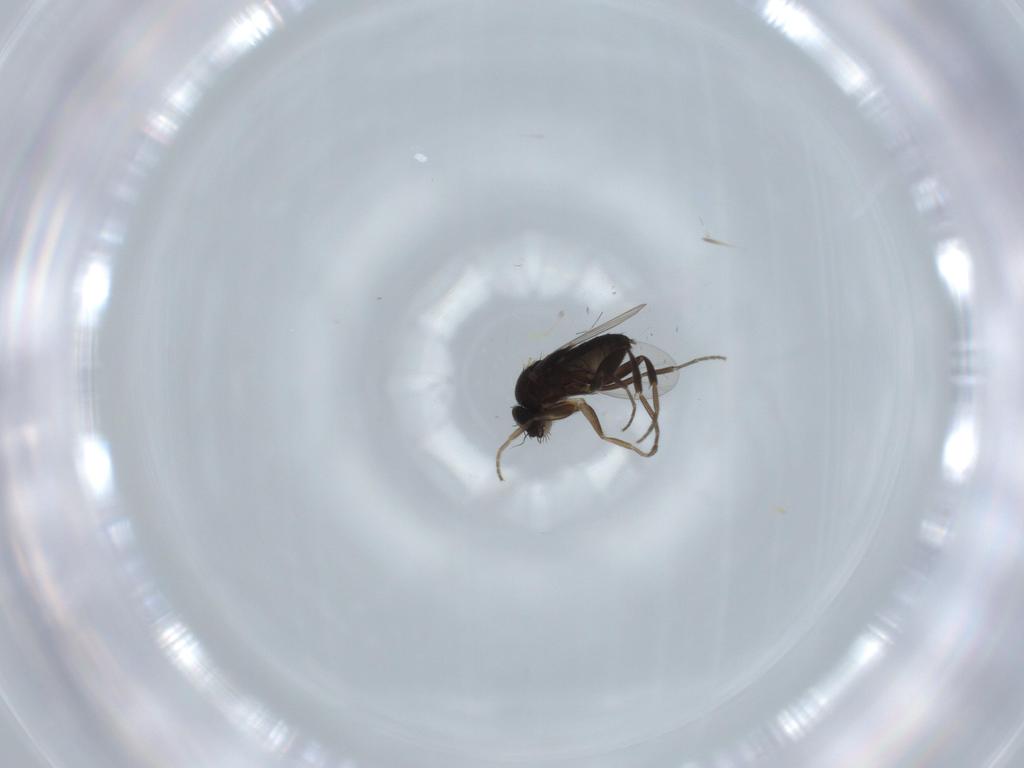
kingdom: Animalia
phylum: Arthropoda
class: Insecta
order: Diptera
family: Phoridae
